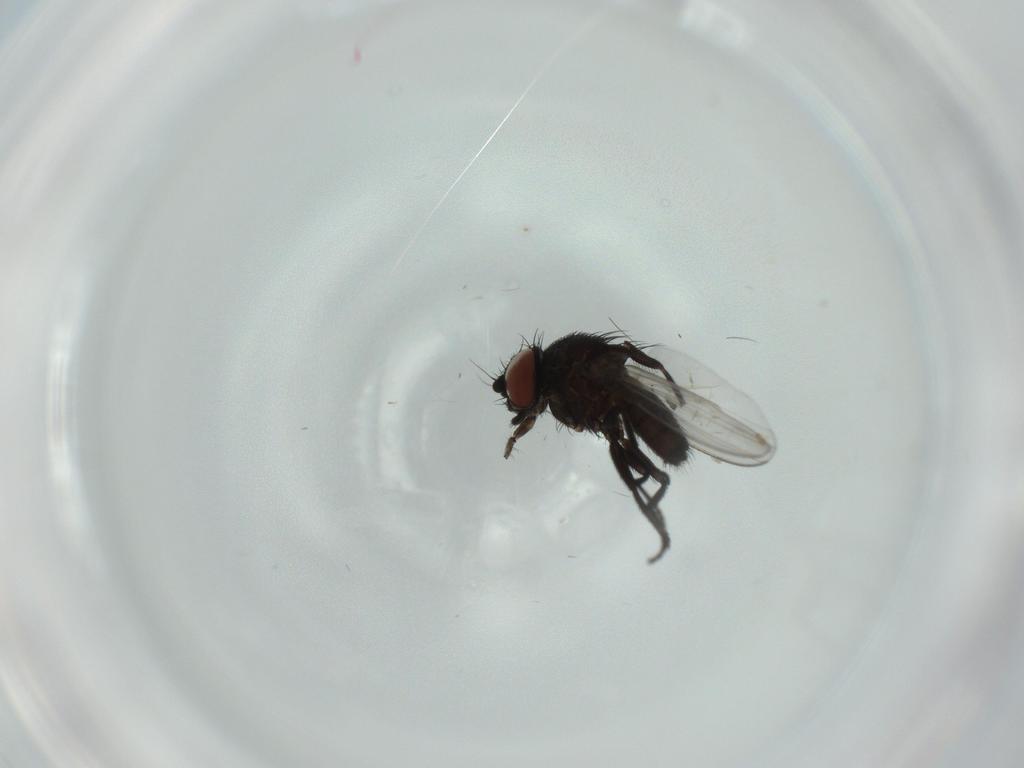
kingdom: Animalia
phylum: Arthropoda
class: Insecta
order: Diptera
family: Milichiidae
